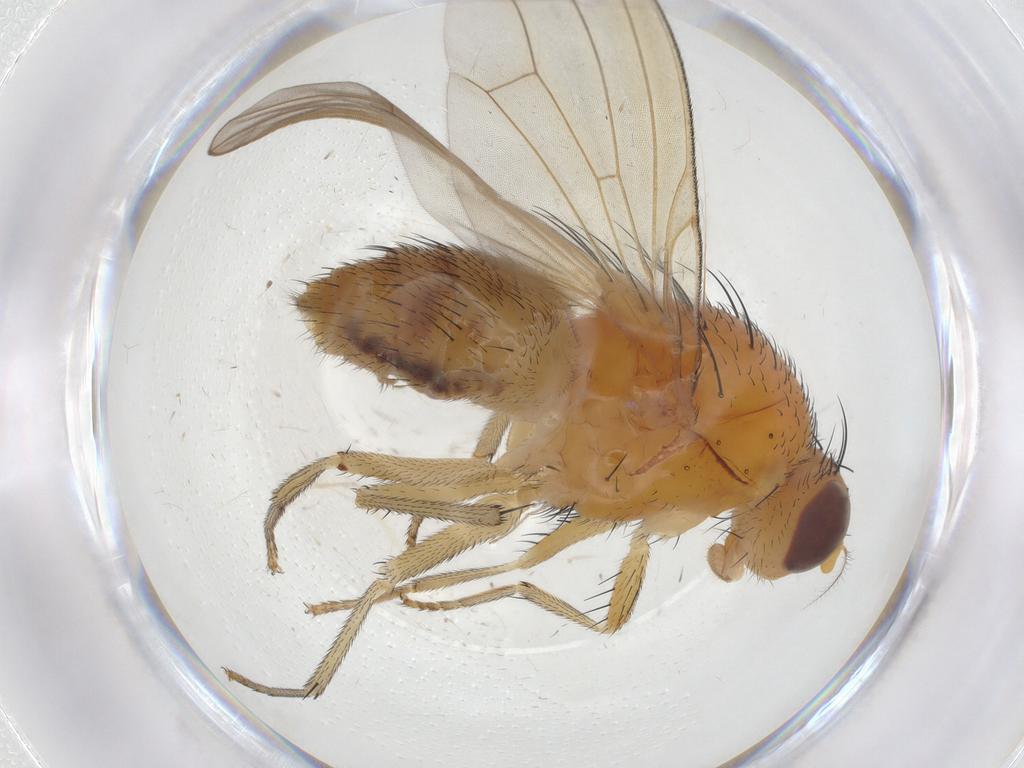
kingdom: Animalia
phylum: Arthropoda
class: Insecta
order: Diptera
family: Chironomidae
